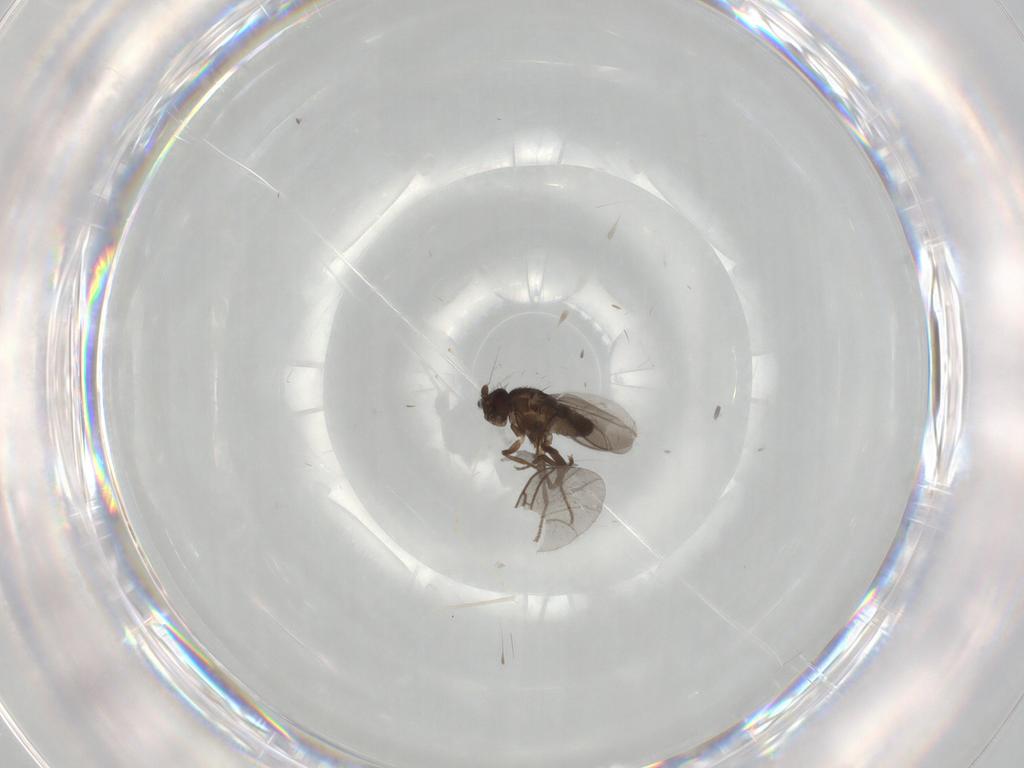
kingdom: Animalia
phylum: Arthropoda
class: Insecta
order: Diptera
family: Sphaeroceridae
